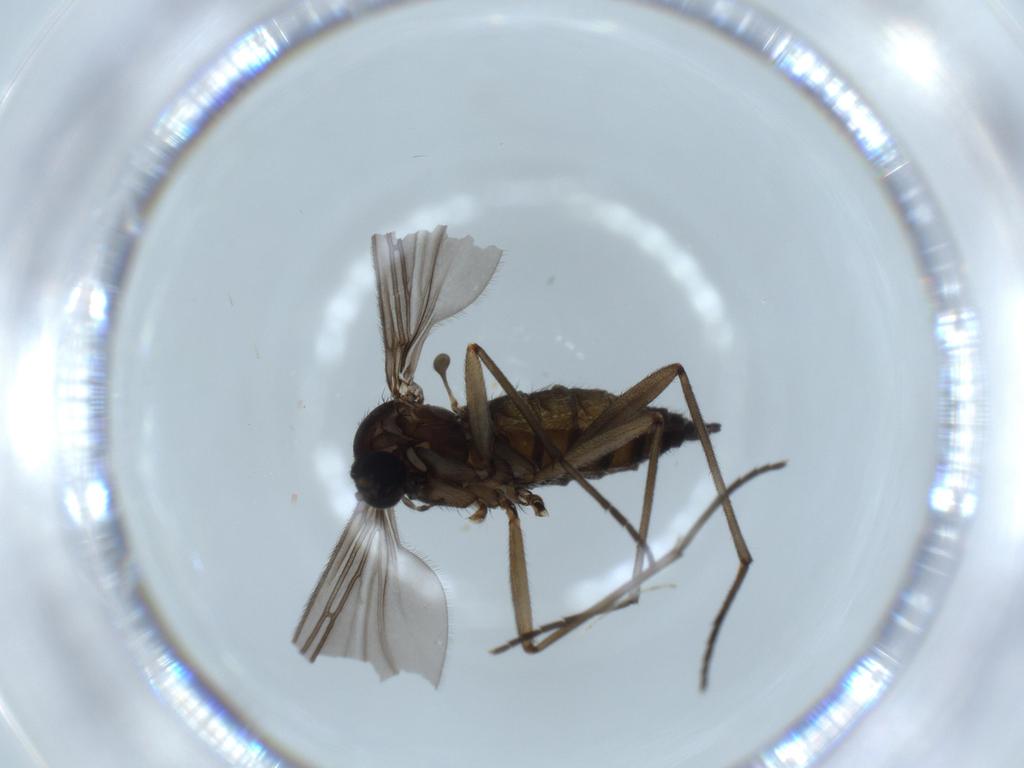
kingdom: Animalia
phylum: Arthropoda
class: Insecta
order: Diptera
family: Sciaridae
